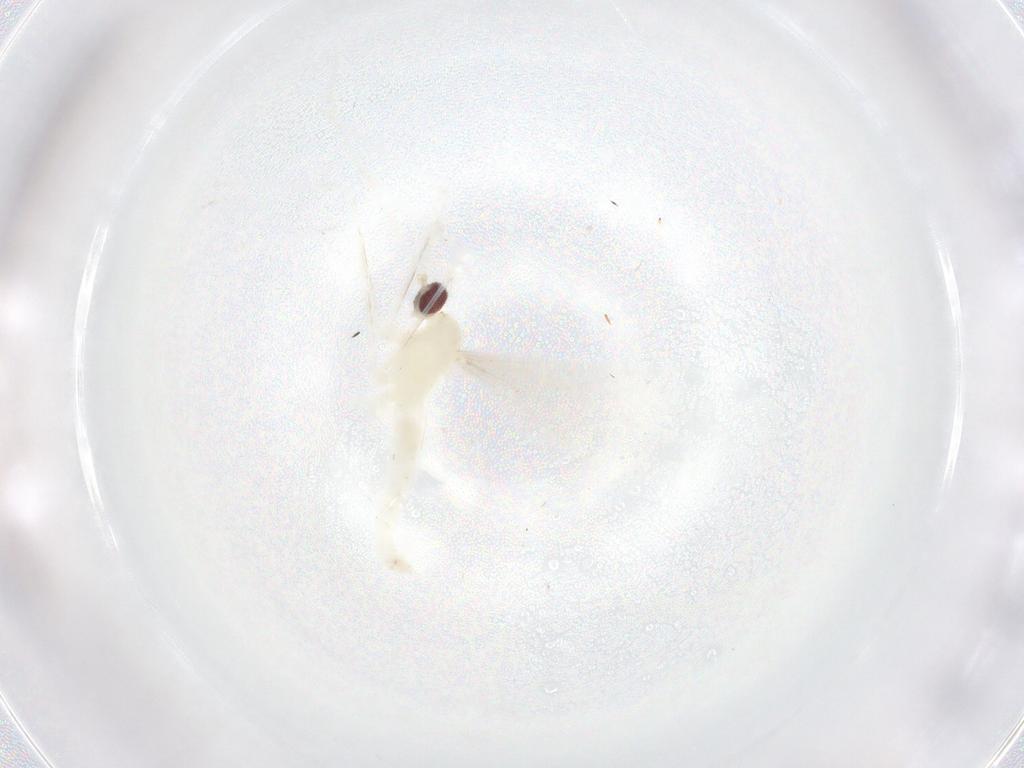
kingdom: Animalia
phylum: Arthropoda
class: Insecta
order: Diptera
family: Cecidomyiidae
